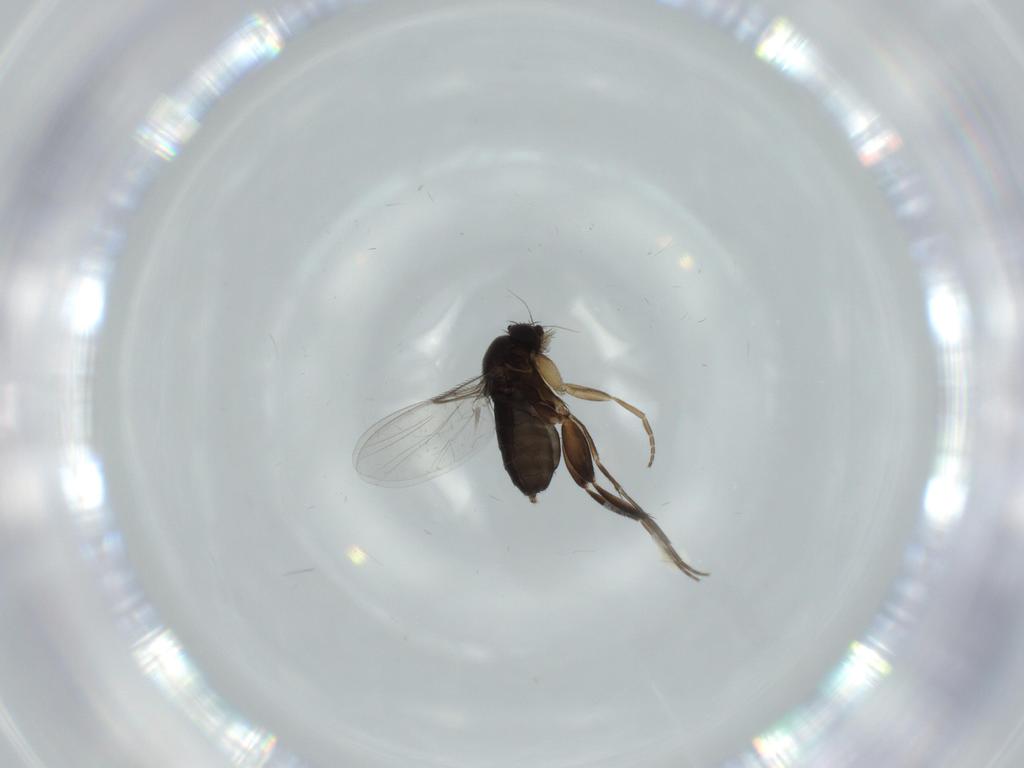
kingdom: Animalia
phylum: Arthropoda
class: Insecta
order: Diptera
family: Phoridae
